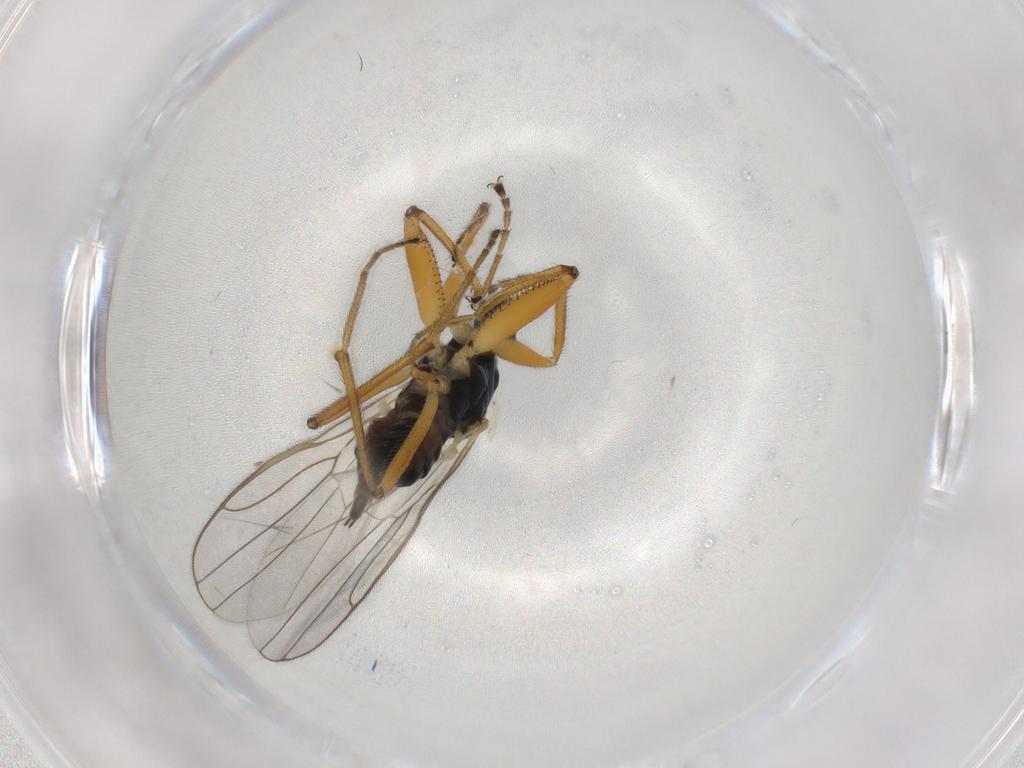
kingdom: Animalia
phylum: Arthropoda
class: Insecta
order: Diptera
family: Hybotidae
